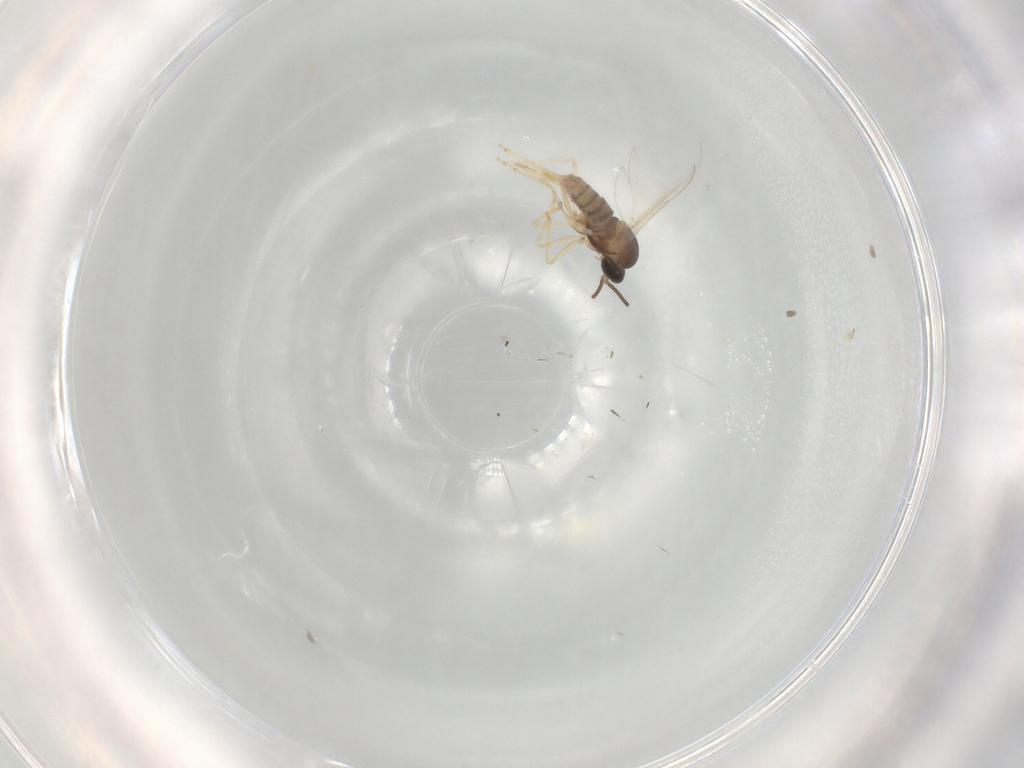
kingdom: Animalia
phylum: Arthropoda
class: Insecta
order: Diptera
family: Cecidomyiidae
